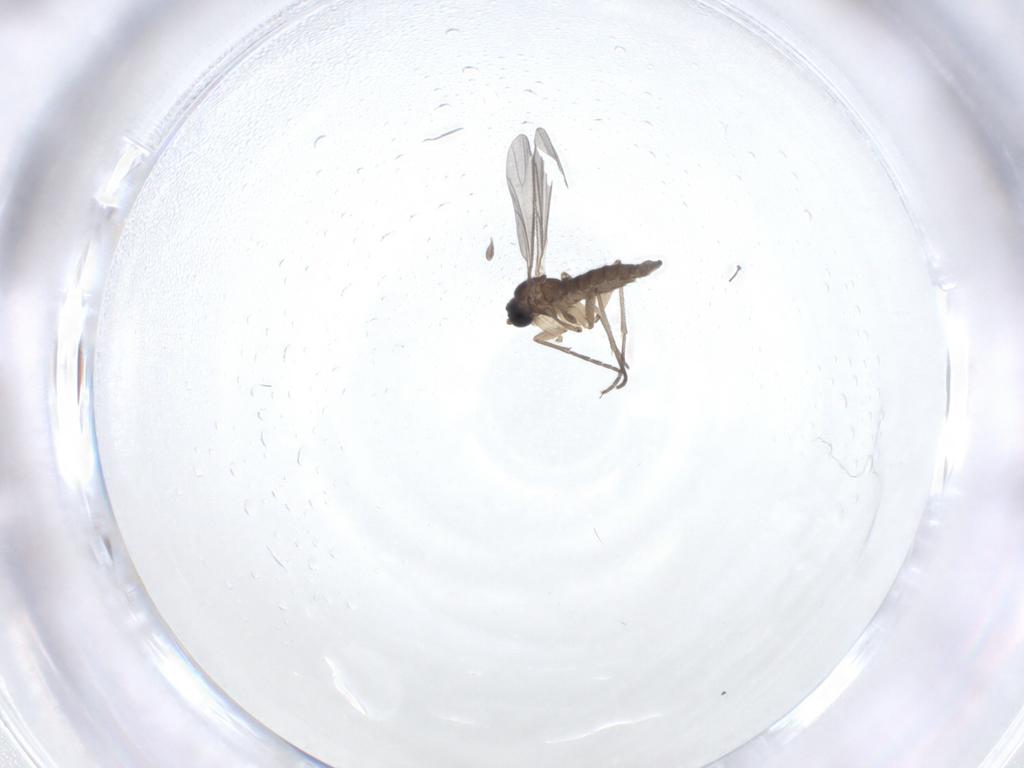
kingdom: Animalia
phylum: Arthropoda
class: Insecta
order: Diptera
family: Sciaridae
